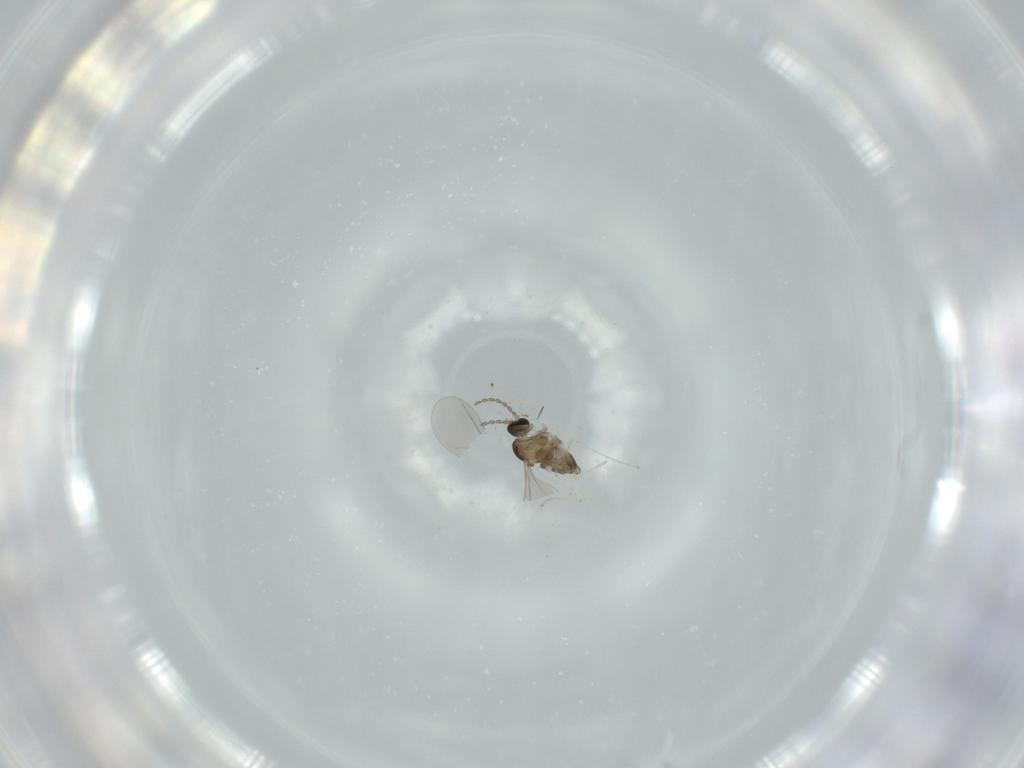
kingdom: Animalia
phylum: Arthropoda
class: Insecta
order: Diptera
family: Cecidomyiidae
